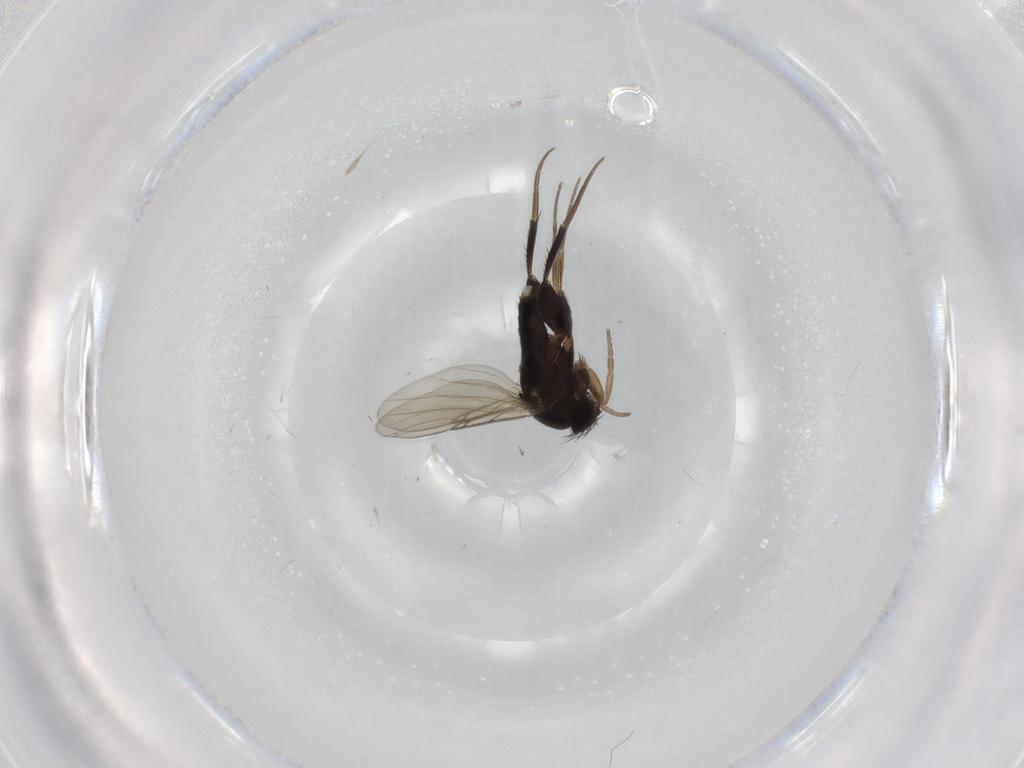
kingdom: Animalia
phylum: Arthropoda
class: Insecta
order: Diptera
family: Phoridae
